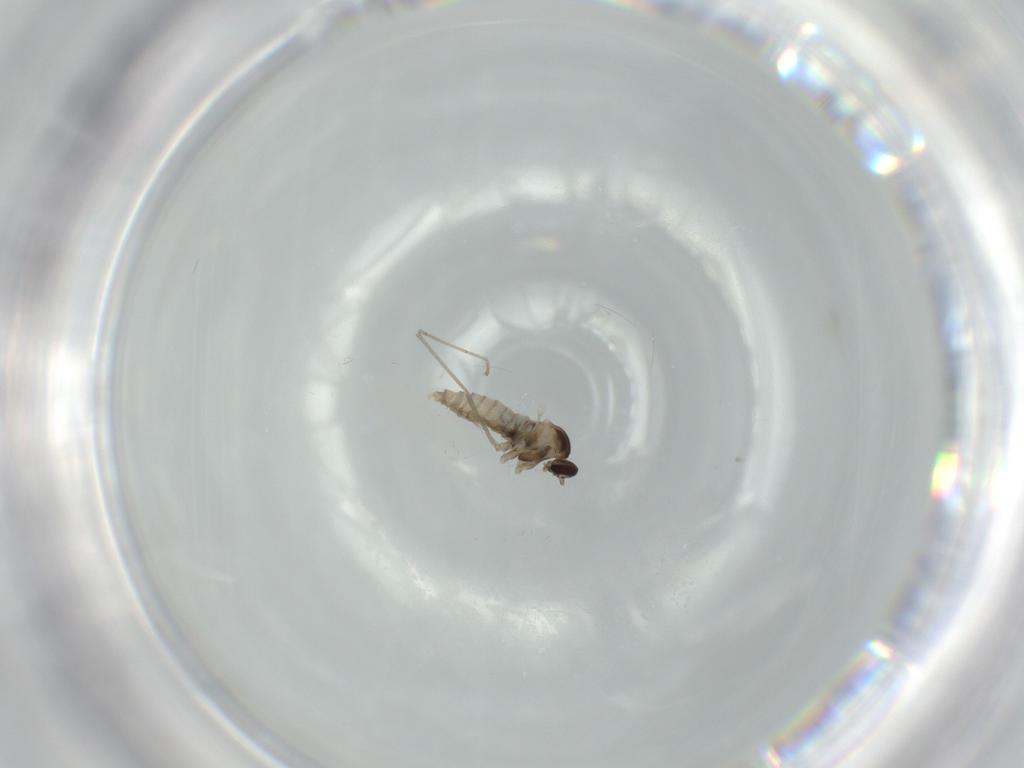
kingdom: Animalia
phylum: Arthropoda
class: Insecta
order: Diptera
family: Cecidomyiidae
